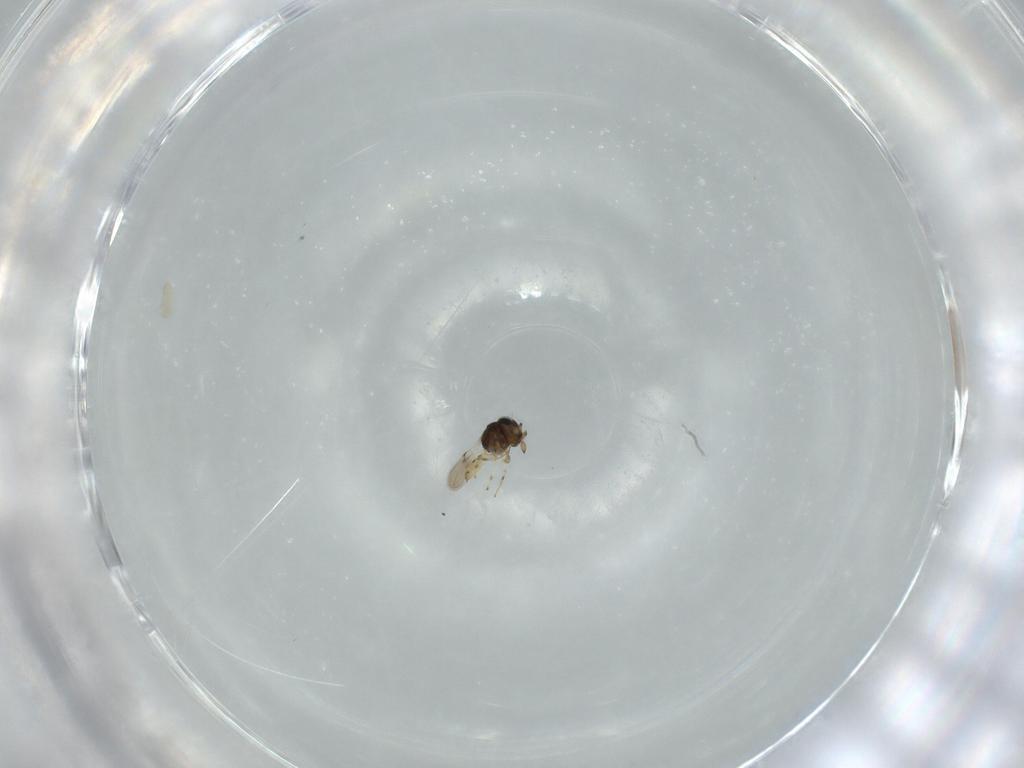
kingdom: Animalia
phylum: Arthropoda
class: Insecta
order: Hymenoptera
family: Scelionidae
